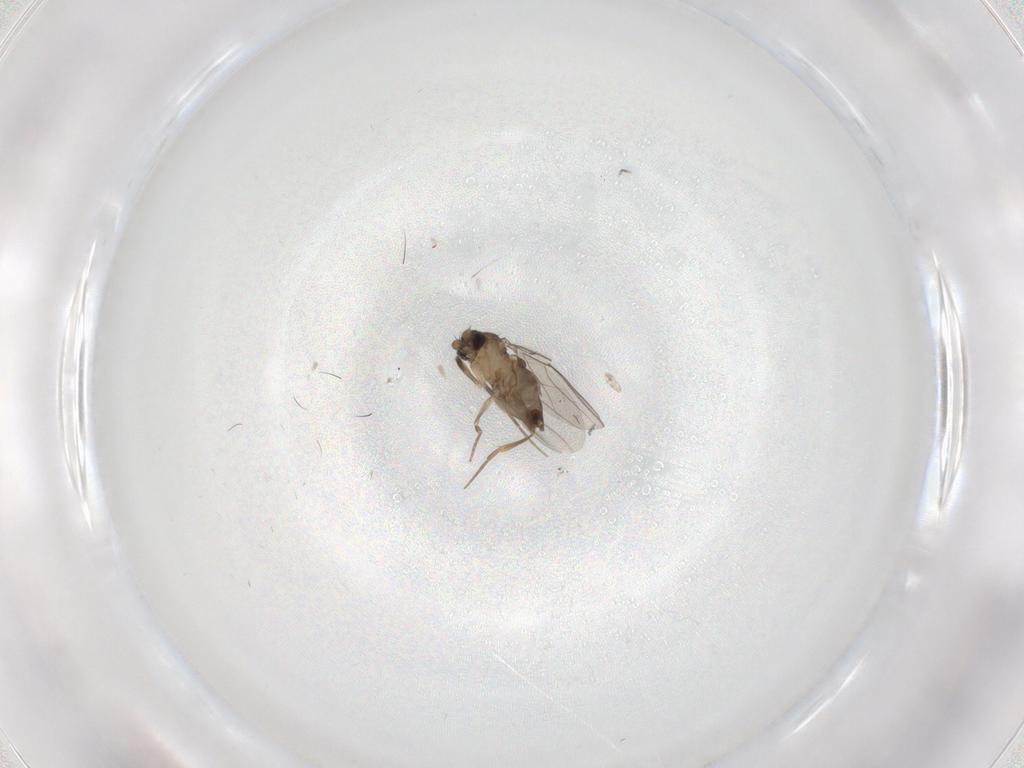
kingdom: Animalia
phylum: Arthropoda
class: Insecta
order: Diptera
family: Phoridae
